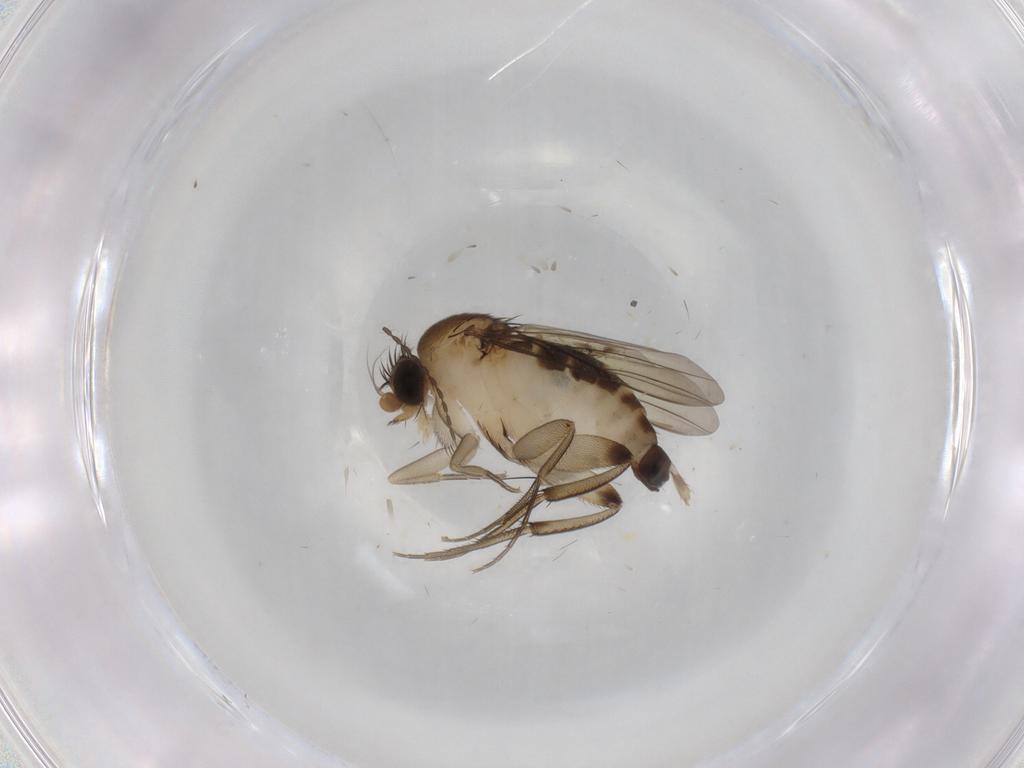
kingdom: Animalia
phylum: Arthropoda
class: Insecta
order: Diptera
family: Phoridae
